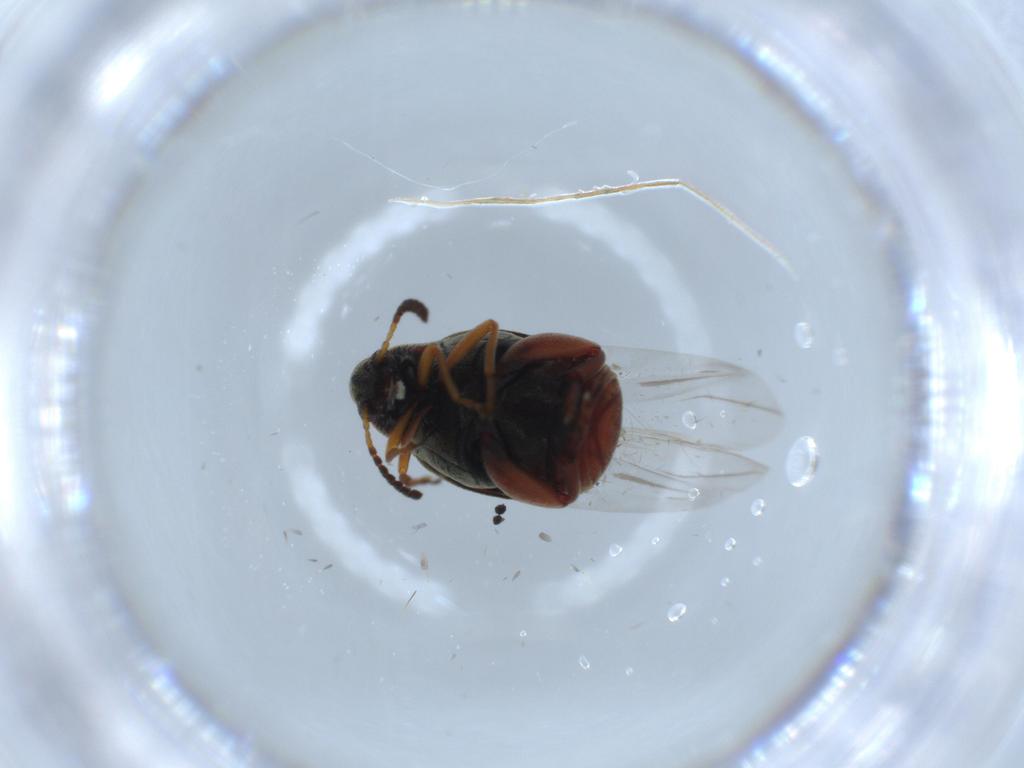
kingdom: Animalia
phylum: Arthropoda
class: Insecta
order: Coleoptera
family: Chrysomelidae
